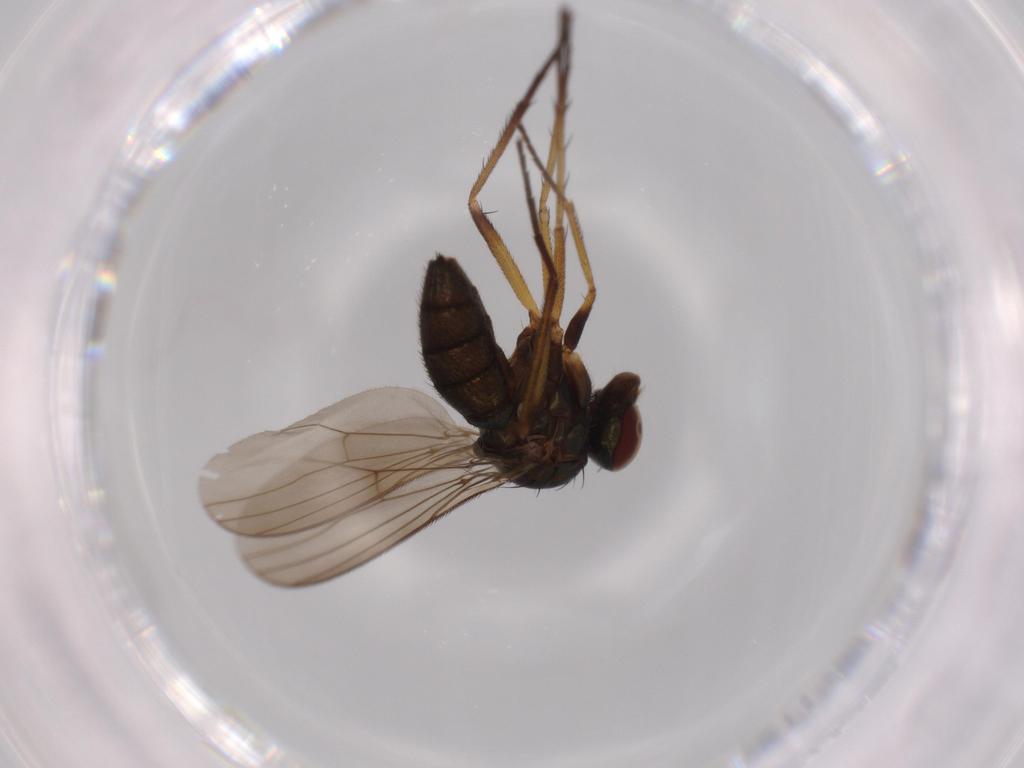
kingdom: Animalia
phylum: Arthropoda
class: Insecta
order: Diptera
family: Dolichopodidae
